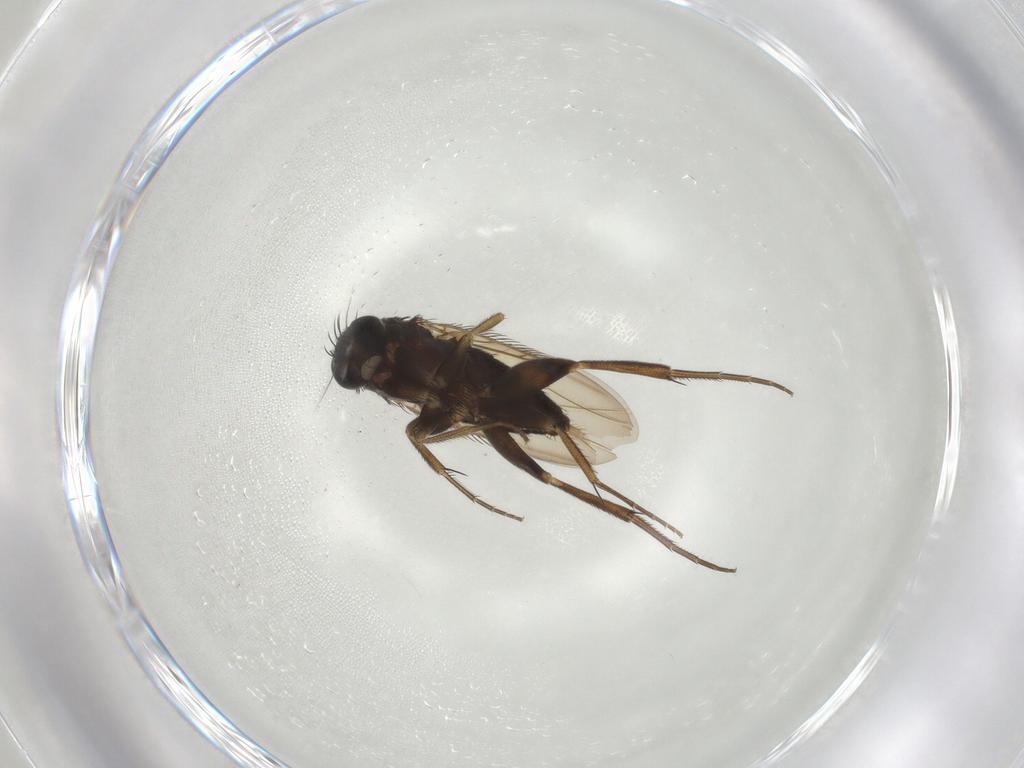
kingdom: Animalia
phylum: Arthropoda
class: Insecta
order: Diptera
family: Phoridae
